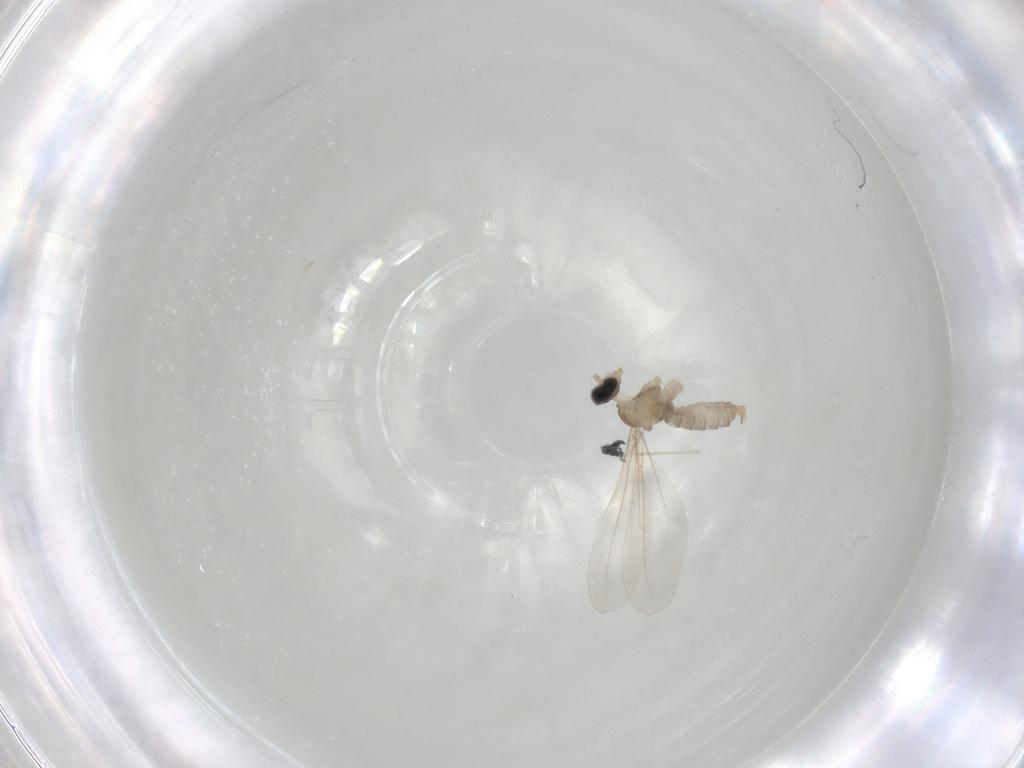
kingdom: Animalia
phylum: Arthropoda
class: Insecta
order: Diptera
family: Cecidomyiidae
